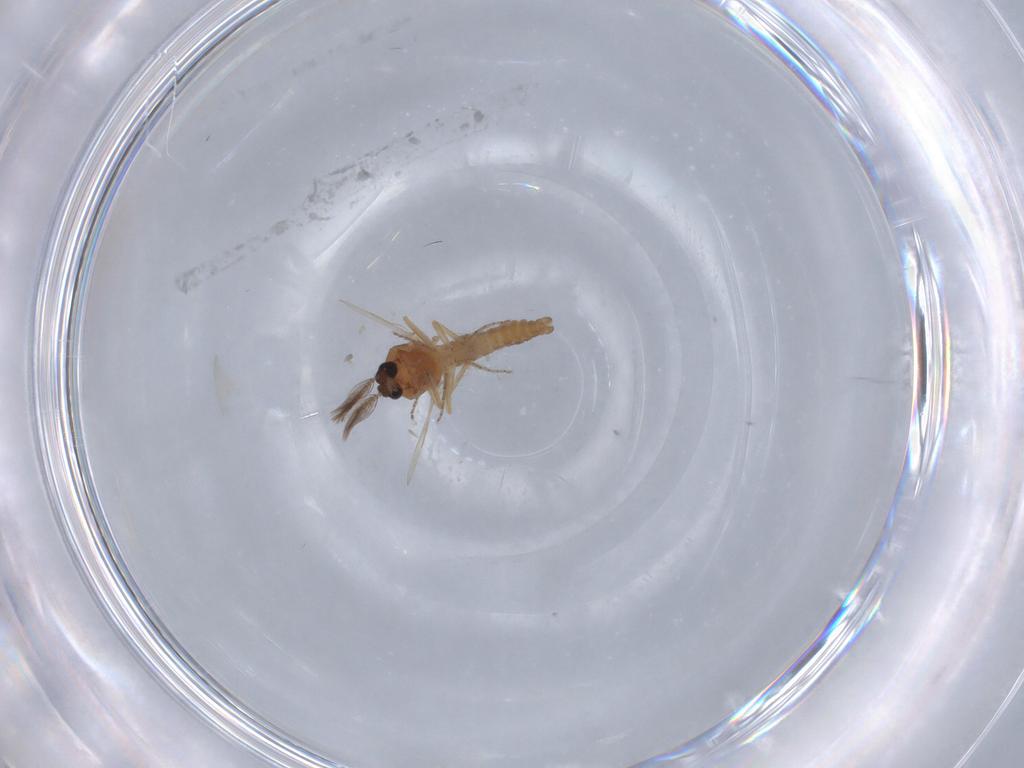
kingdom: Animalia
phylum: Arthropoda
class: Insecta
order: Diptera
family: Ceratopogonidae
